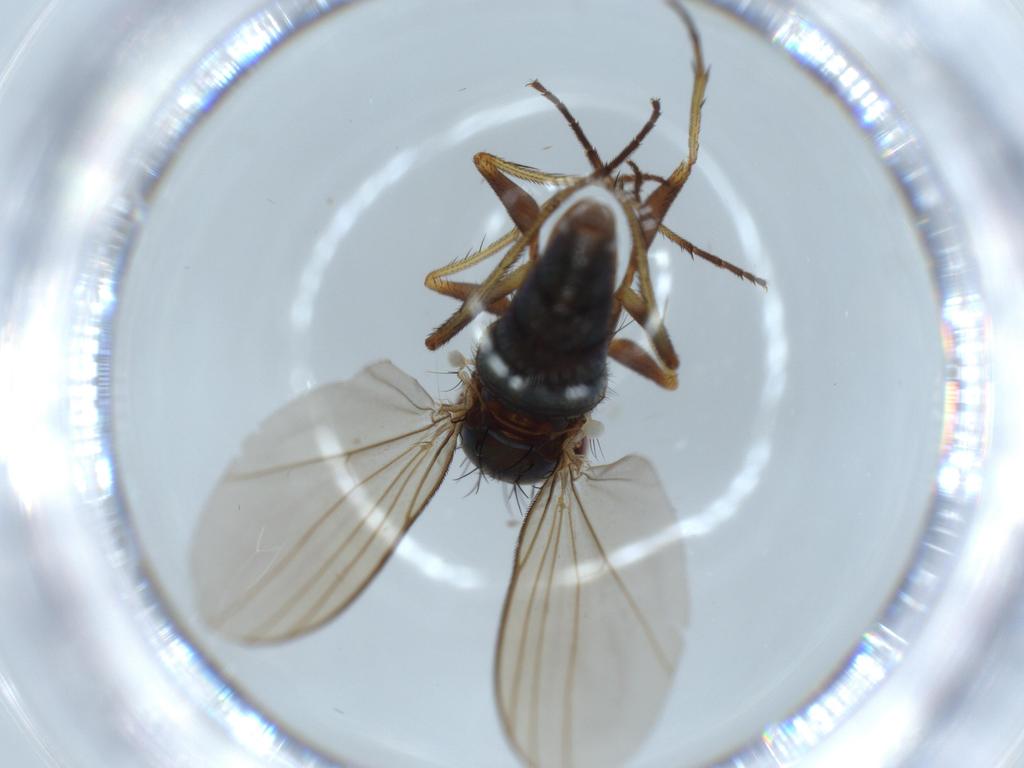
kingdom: Animalia
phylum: Arthropoda
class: Insecta
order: Diptera
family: Dolichopodidae
